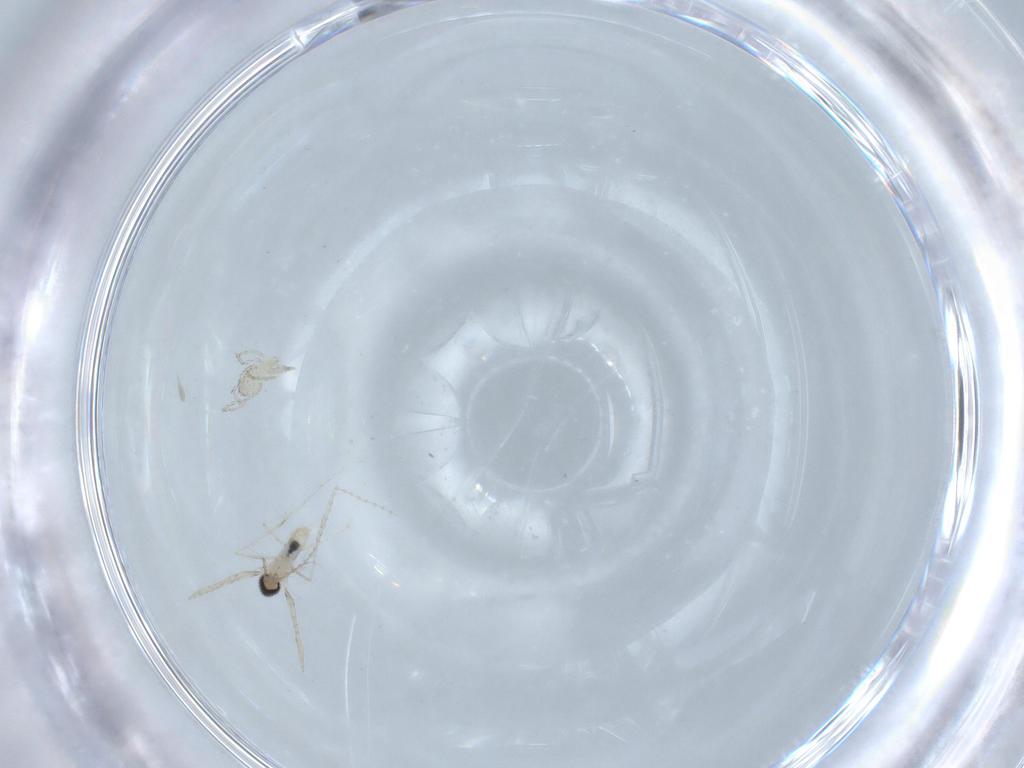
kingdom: Animalia
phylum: Arthropoda
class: Insecta
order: Diptera
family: Cecidomyiidae
